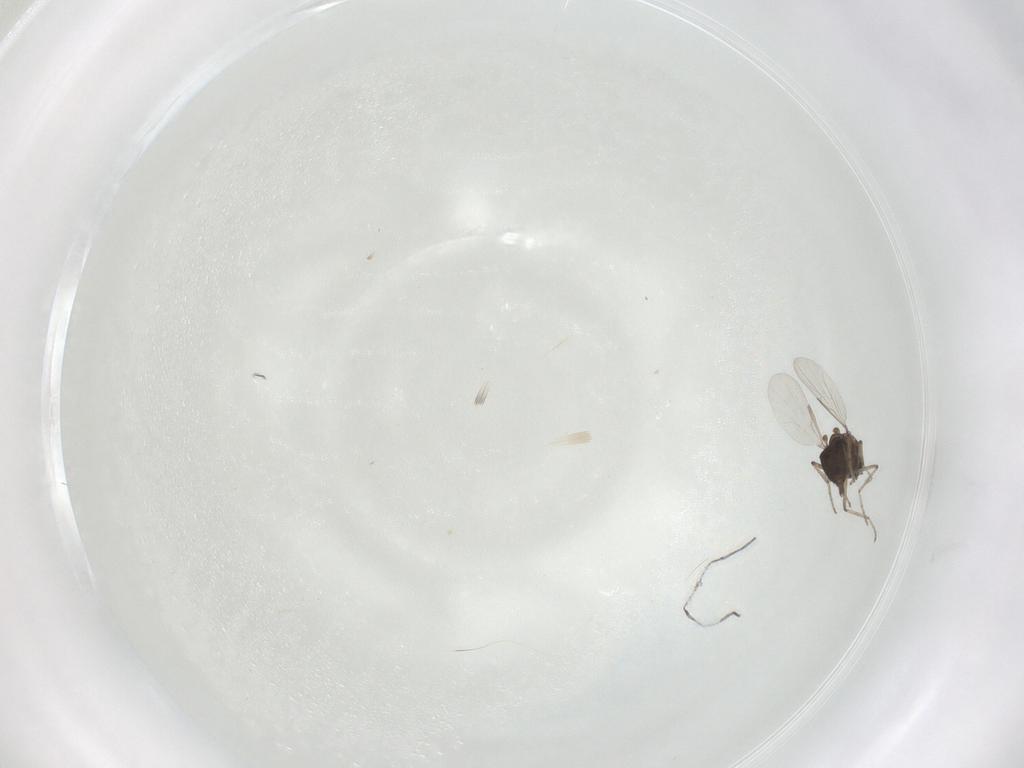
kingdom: Animalia
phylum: Arthropoda
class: Insecta
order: Diptera
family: Ceratopogonidae
